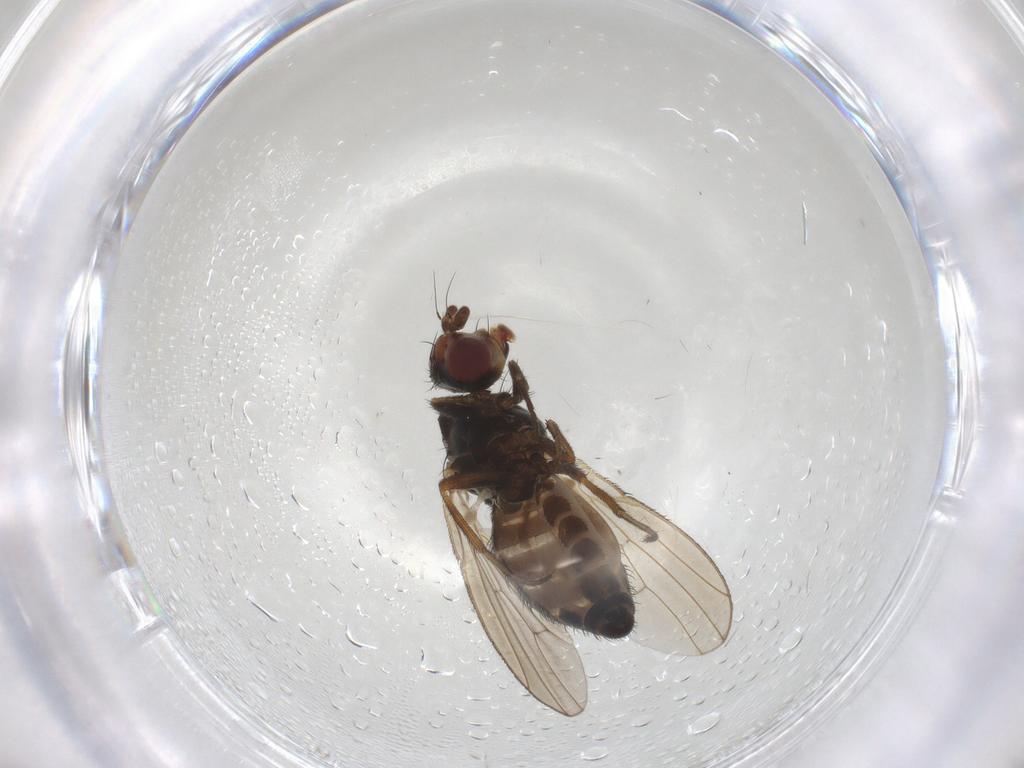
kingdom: Animalia
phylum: Arthropoda
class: Insecta
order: Diptera
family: Heleomyzidae
